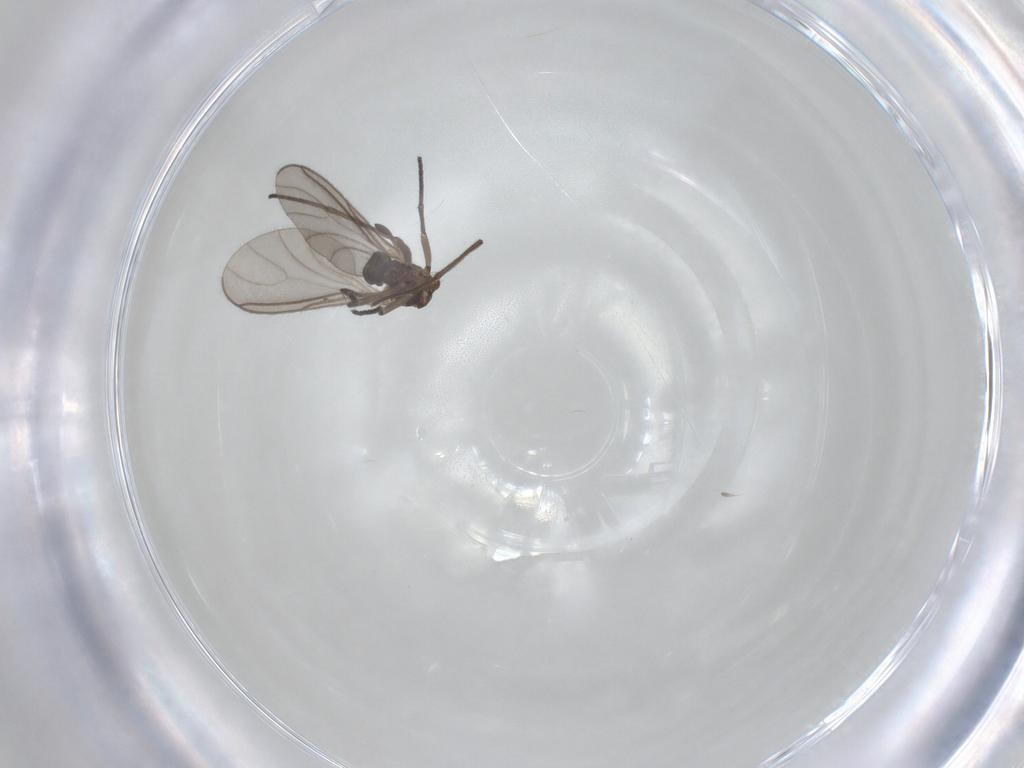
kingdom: Animalia
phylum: Arthropoda
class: Insecta
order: Diptera
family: Sciaridae
